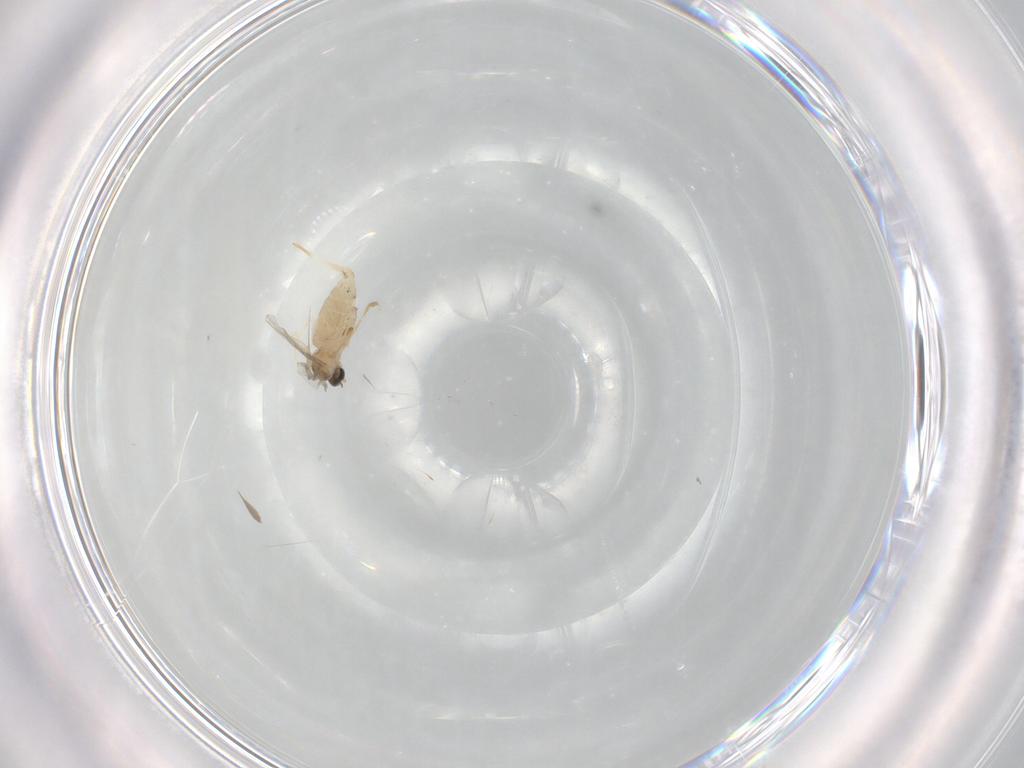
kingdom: Animalia
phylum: Arthropoda
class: Insecta
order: Diptera
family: Cecidomyiidae
